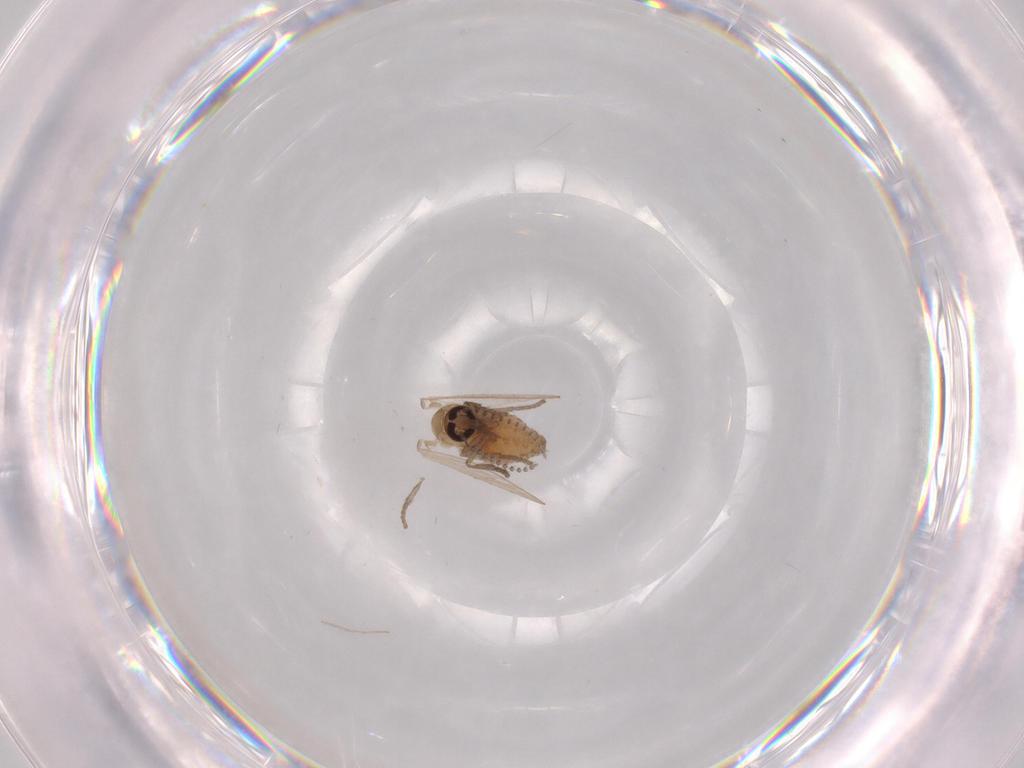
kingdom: Animalia
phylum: Arthropoda
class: Insecta
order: Diptera
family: Psychodidae
